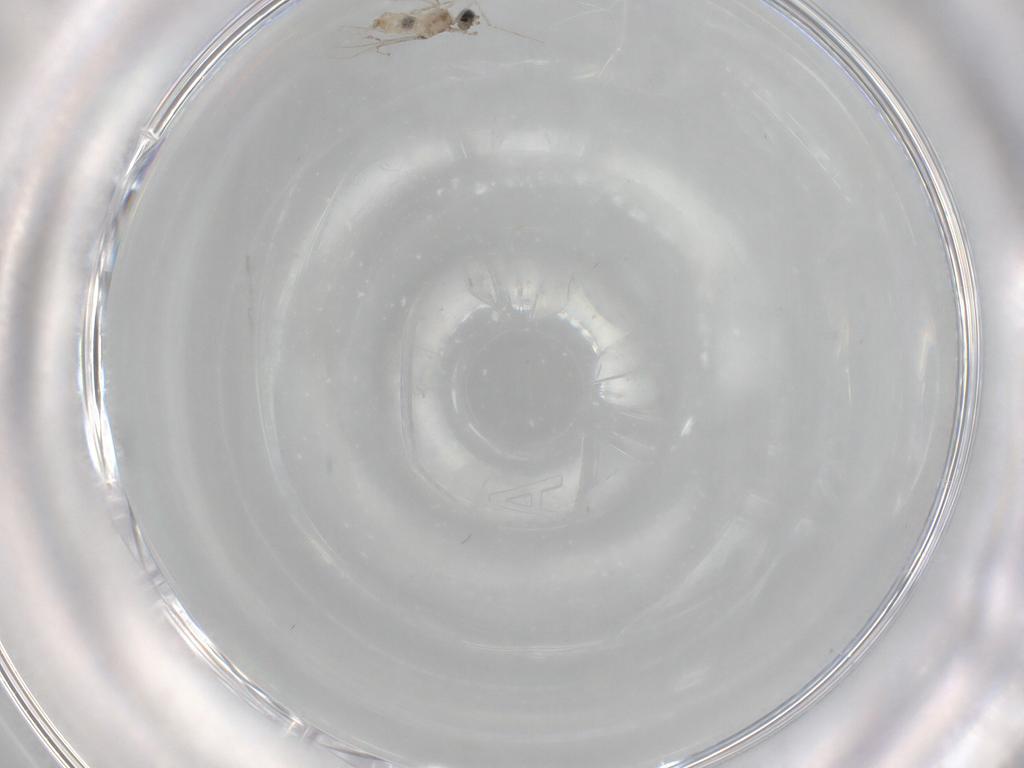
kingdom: Animalia
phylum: Arthropoda
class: Insecta
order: Diptera
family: Cecidomyiidae
